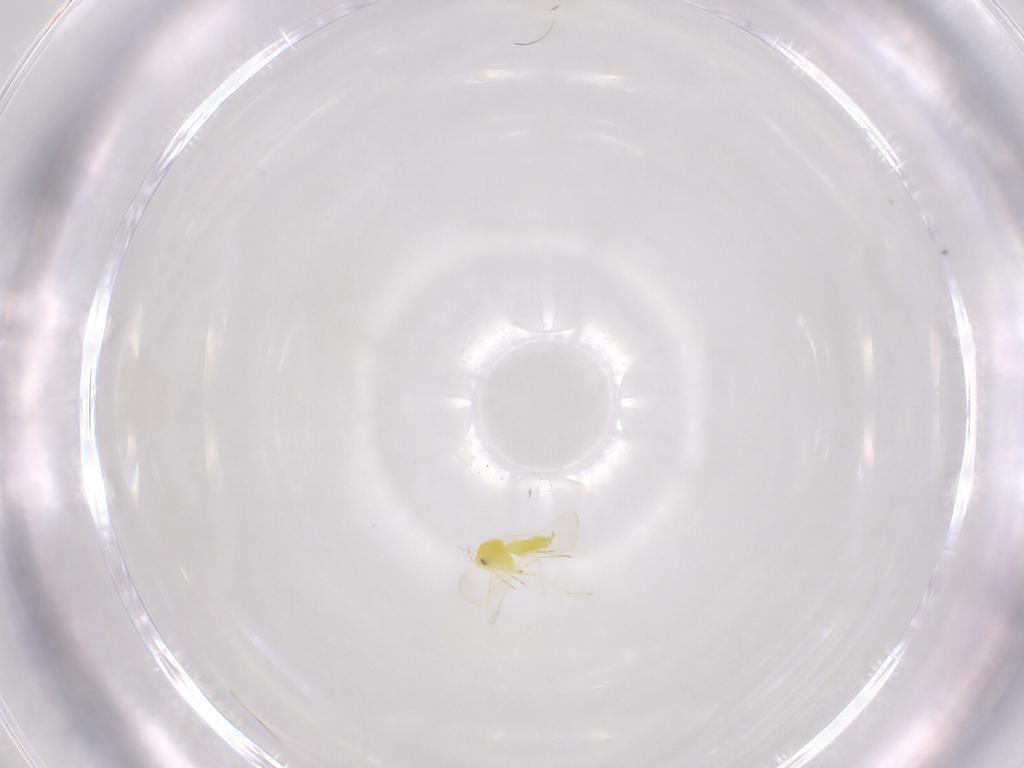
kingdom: Animalia
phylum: Arthropoda
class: Insecta
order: Hemiptera
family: Aleyrodidae
